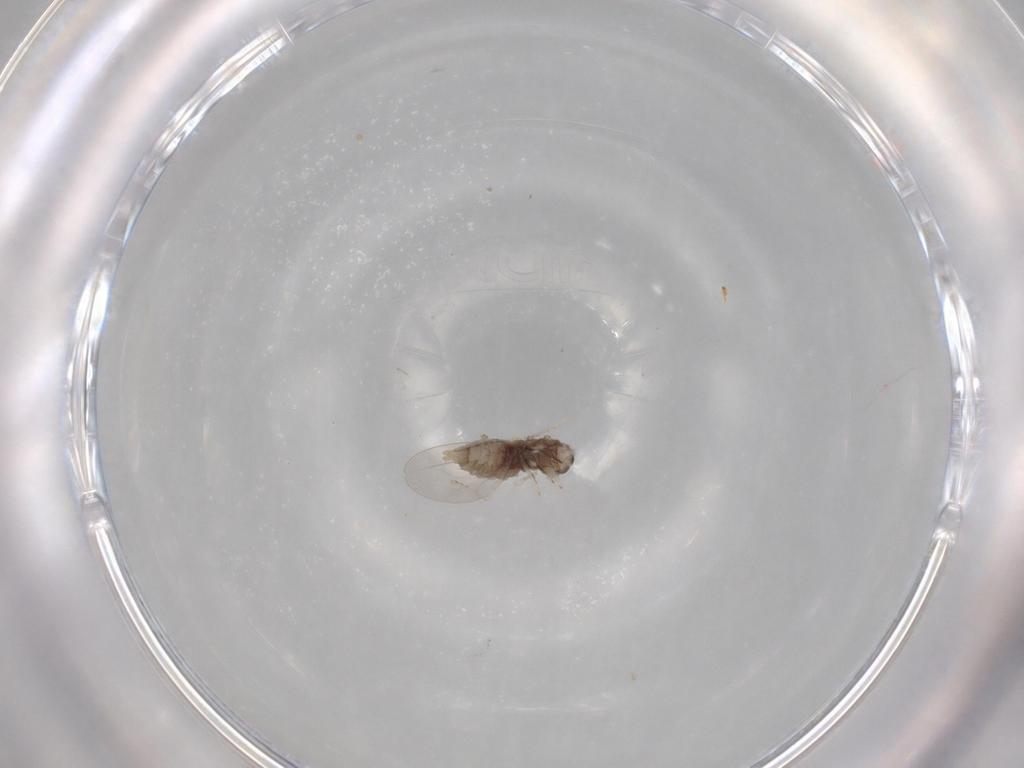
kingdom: Animalia
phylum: Arthropoda
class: Insecta
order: Diptera
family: Cecidomyiidae
